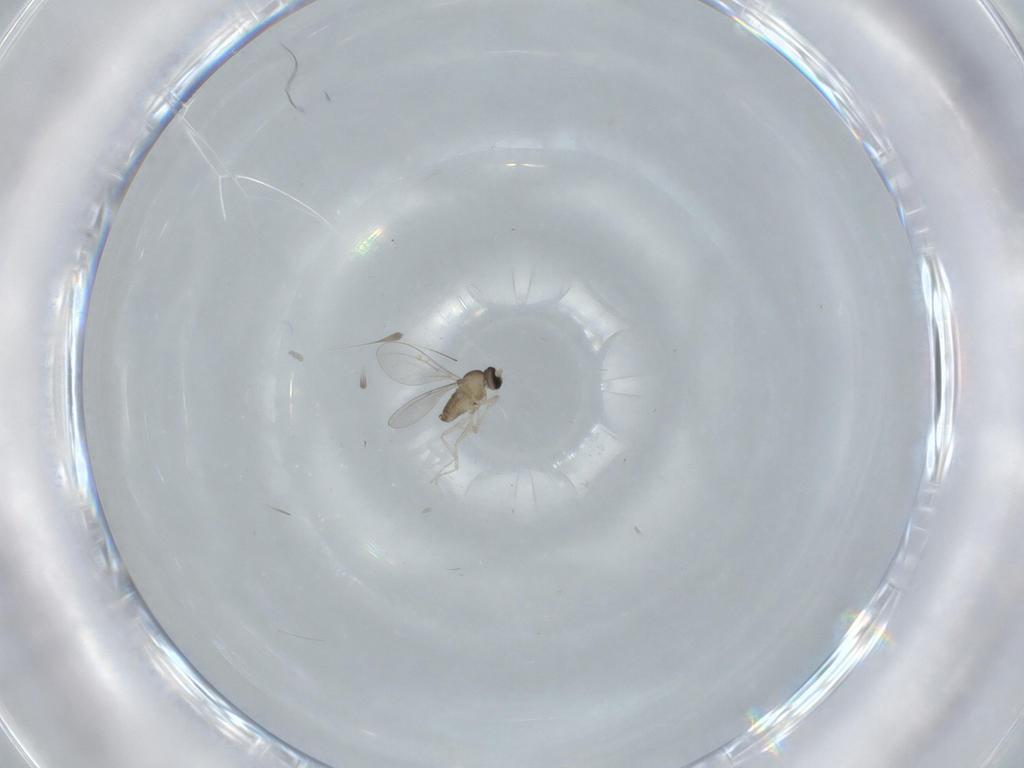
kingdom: Animalia
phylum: Arthropoda
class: Insecta
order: Diptera
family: Cecidomyiidae
